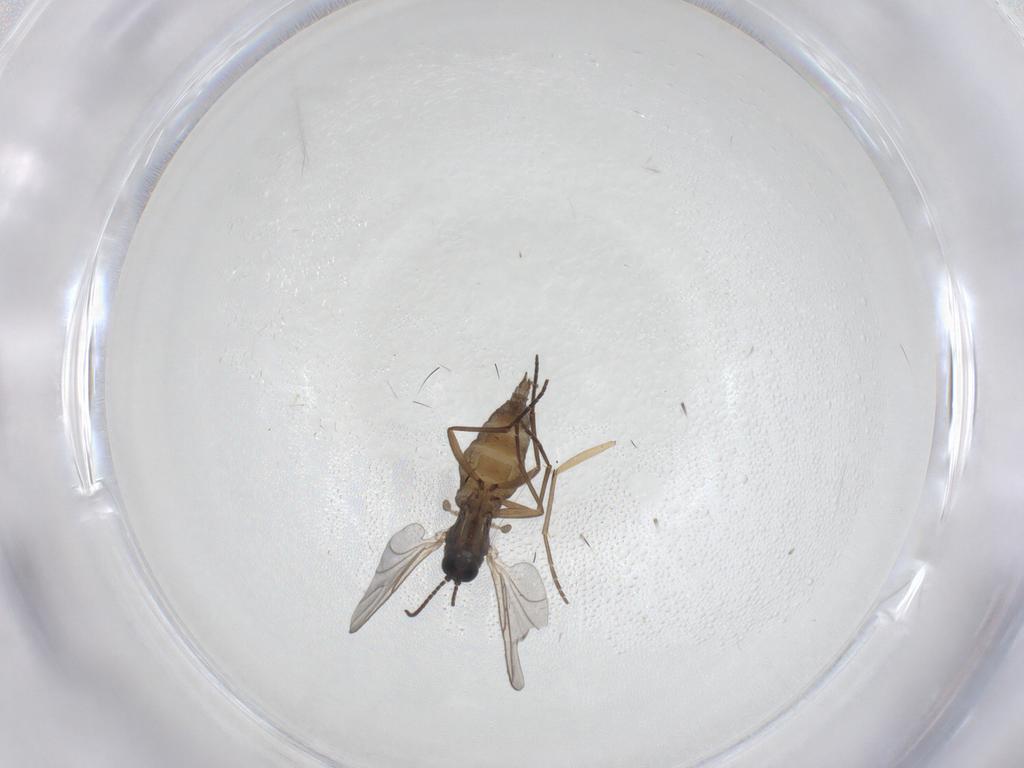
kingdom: Animalia
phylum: Arthropoda
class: Insecta
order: Diptera
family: Sciaridae
